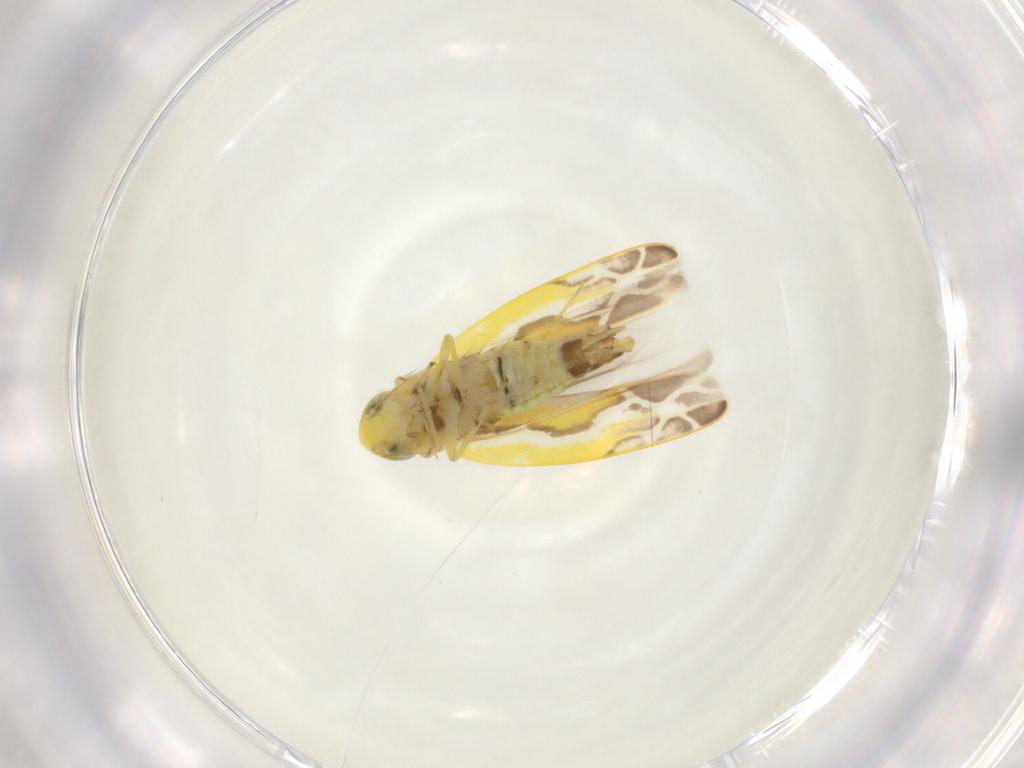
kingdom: Animalia
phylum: Arthropoda
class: Insecta
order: Hemiptera
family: Cicadellidae
